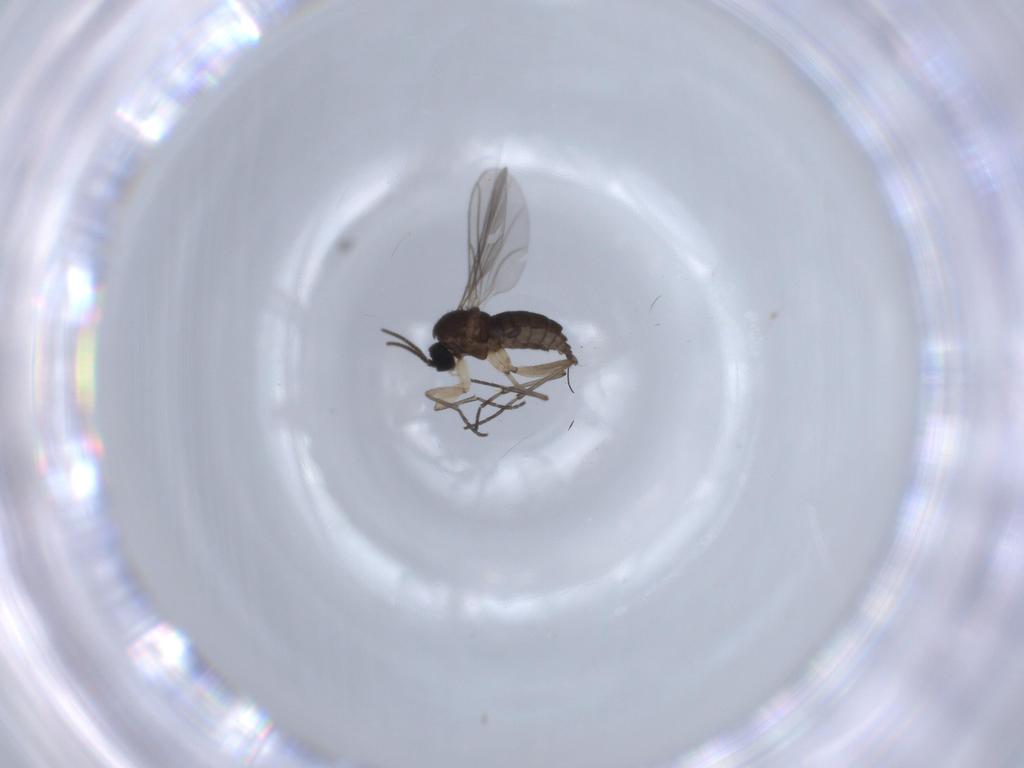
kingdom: Animalia
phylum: Arthropoda
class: Insecta
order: Diptera
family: Sciaridae
